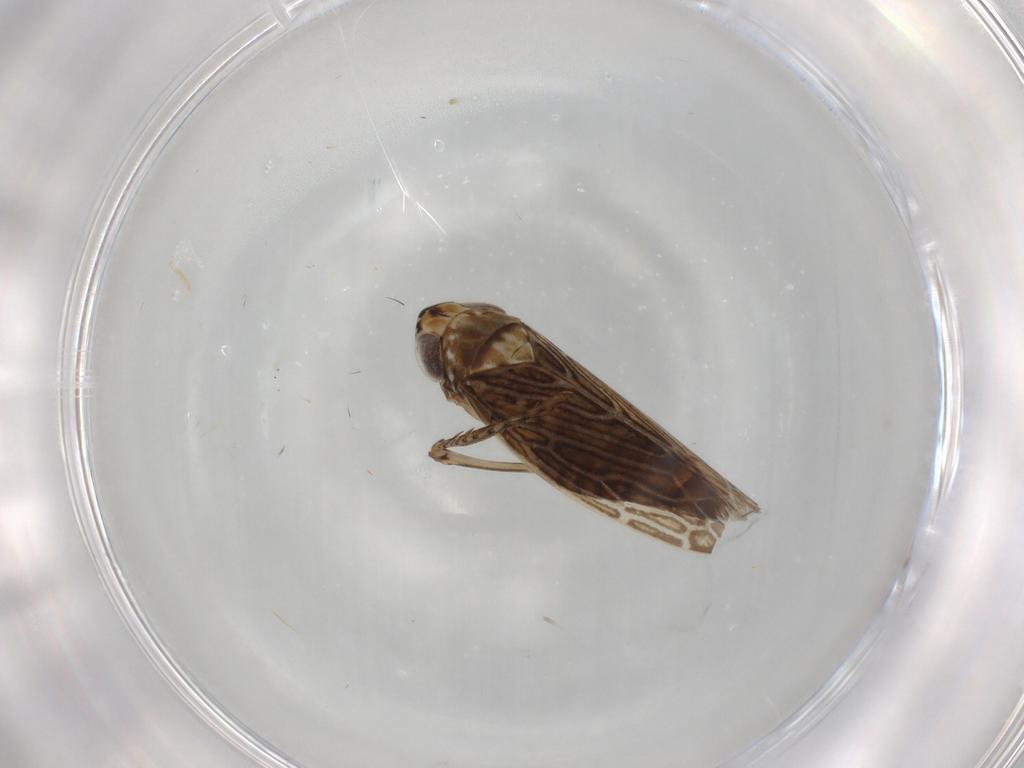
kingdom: Animalia
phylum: Arthropoda
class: Insecta
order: Hemiptera
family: Cicadellidae
